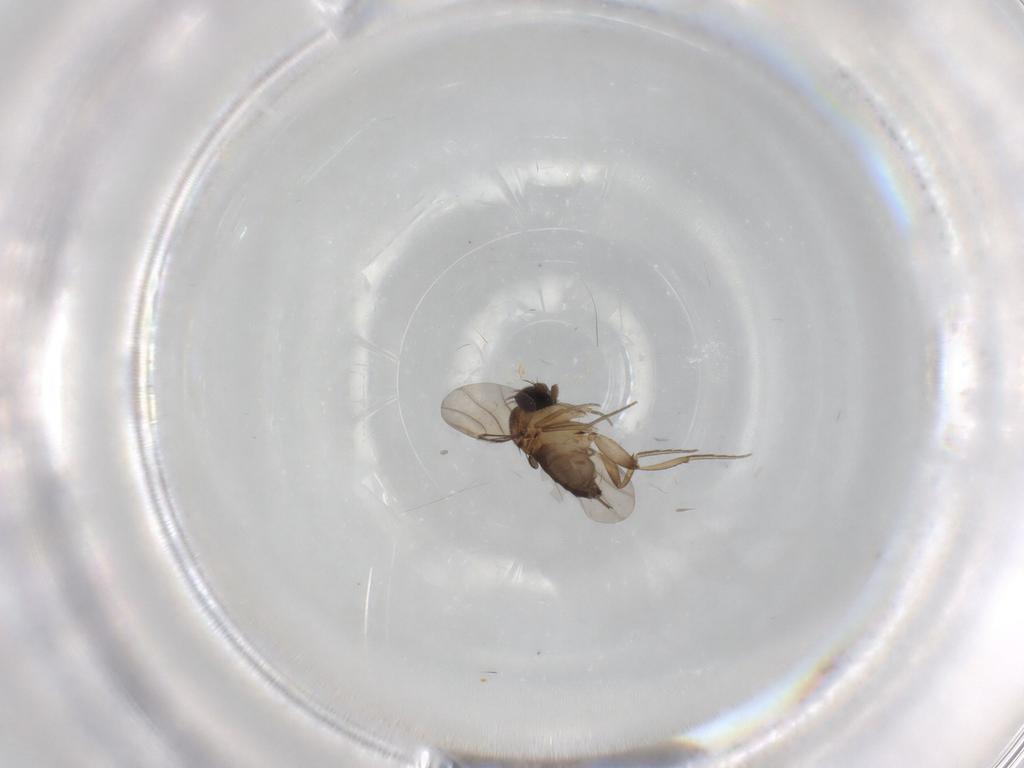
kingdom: Animalia
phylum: Arthropoda
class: Insecta
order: Diptera
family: Phoridae
